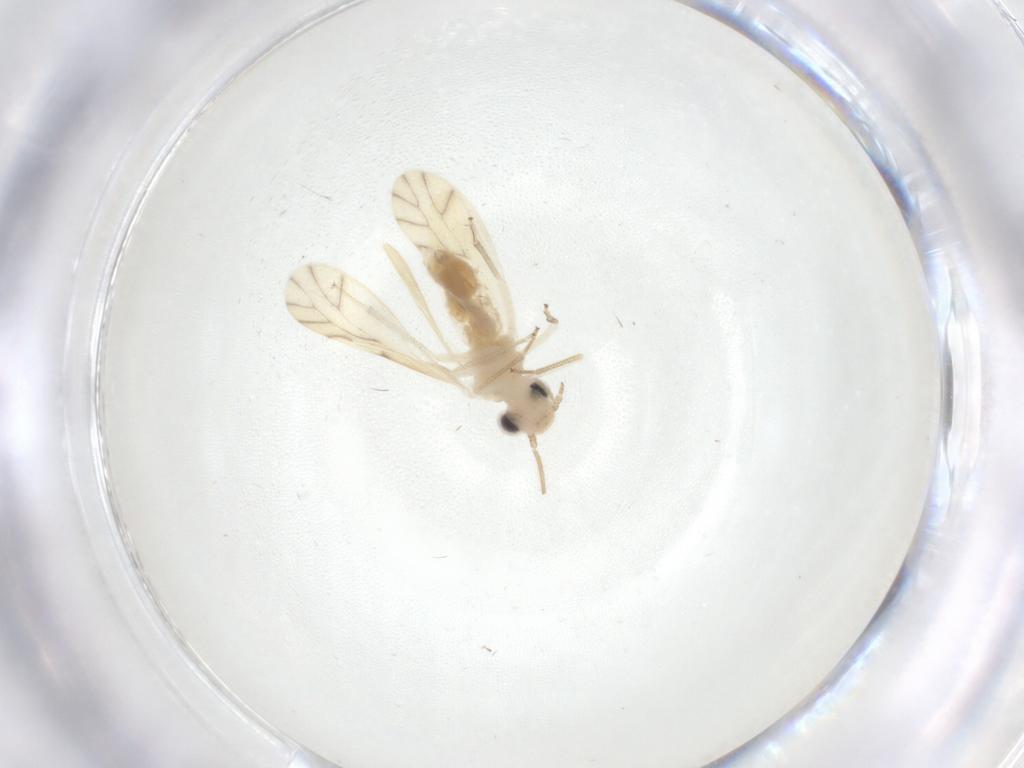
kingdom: Animalia
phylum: Arthropoda
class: Insecta
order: Psocodea
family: Caeciliusidae
